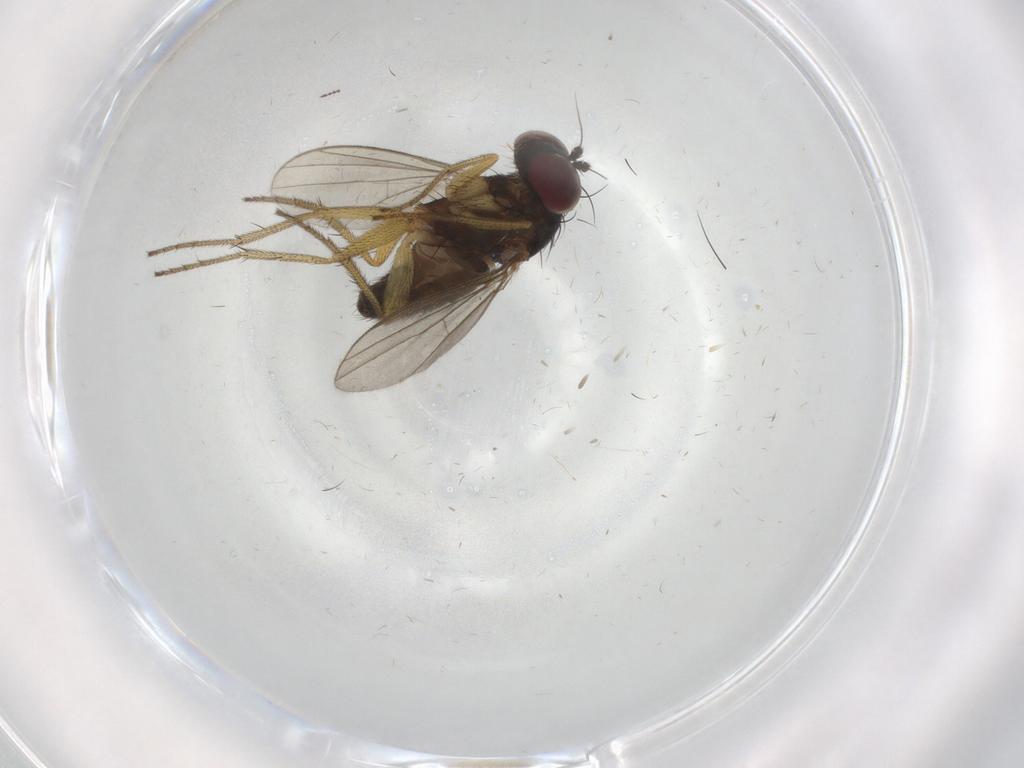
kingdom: Animalia
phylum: Arthropoda
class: Insecta
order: Diptera
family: Dolichopodidae
